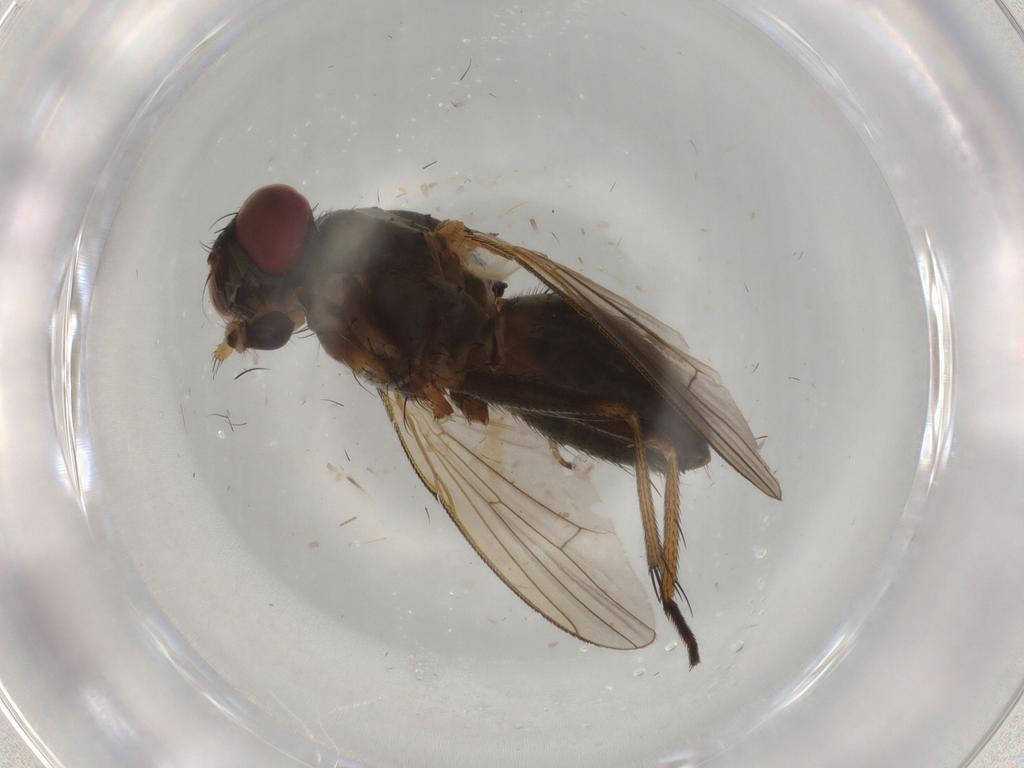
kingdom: Animalia
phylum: Arthropoda
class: Insecta
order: Diptera
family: Muscidae
